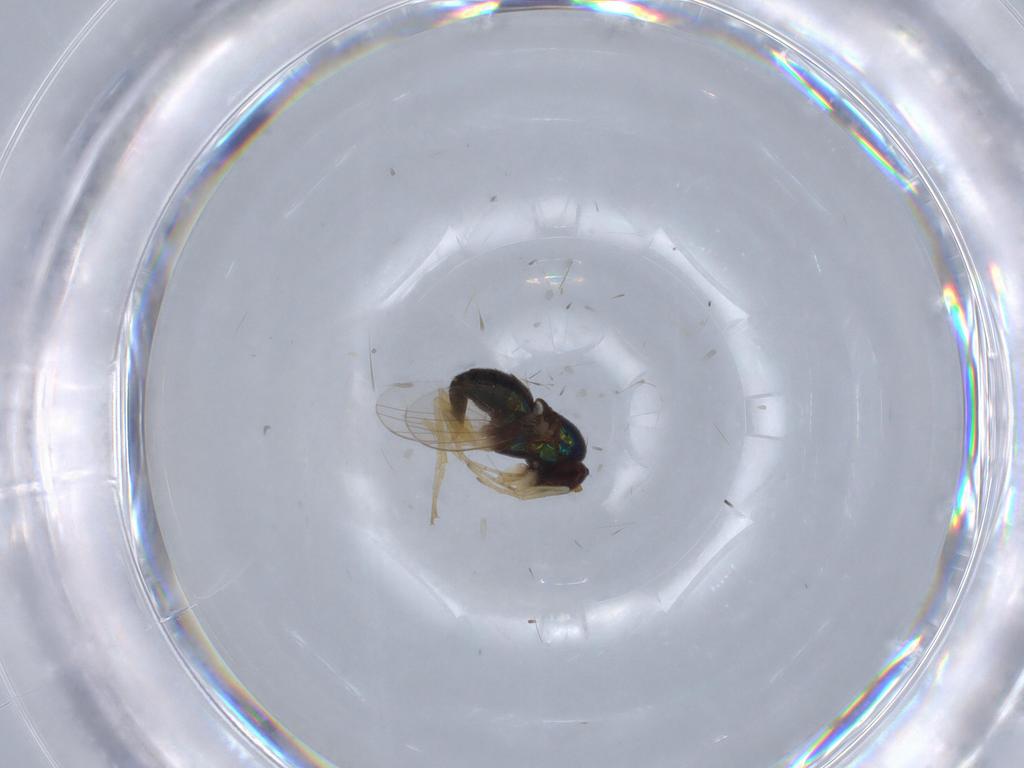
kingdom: Animalia
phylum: Arthropoda
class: Insecta
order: Diptera
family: Dolichopodidae
